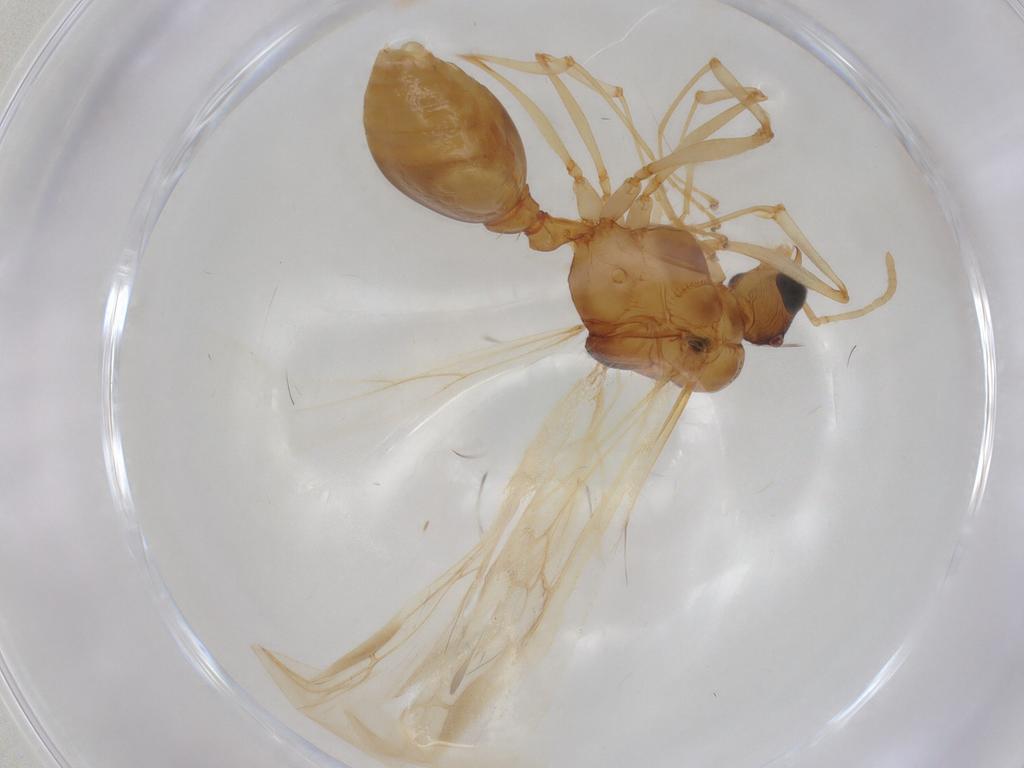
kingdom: Animalia
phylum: Arthropoda
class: Insecta
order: Hymenoptera
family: Formicidae
